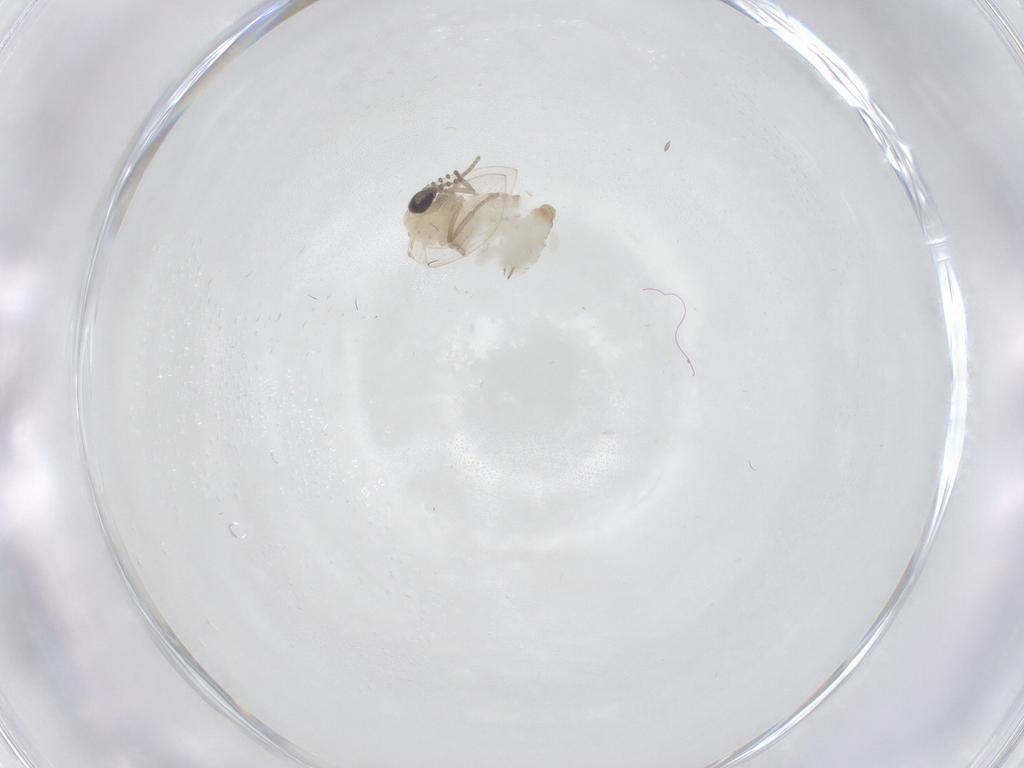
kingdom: Animalia
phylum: Arthropoda
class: Insecta
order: Diptera
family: Psychodidae
